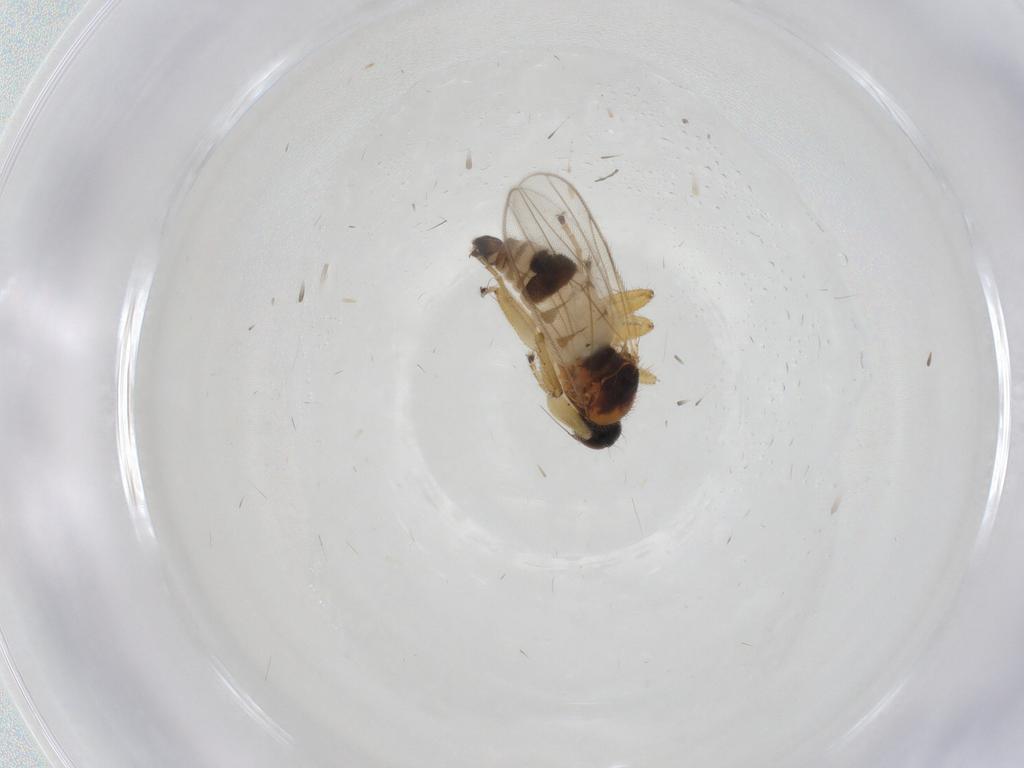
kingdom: Animalia
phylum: Arthropoda
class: Insecta
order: Diptera
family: Hybotidae
